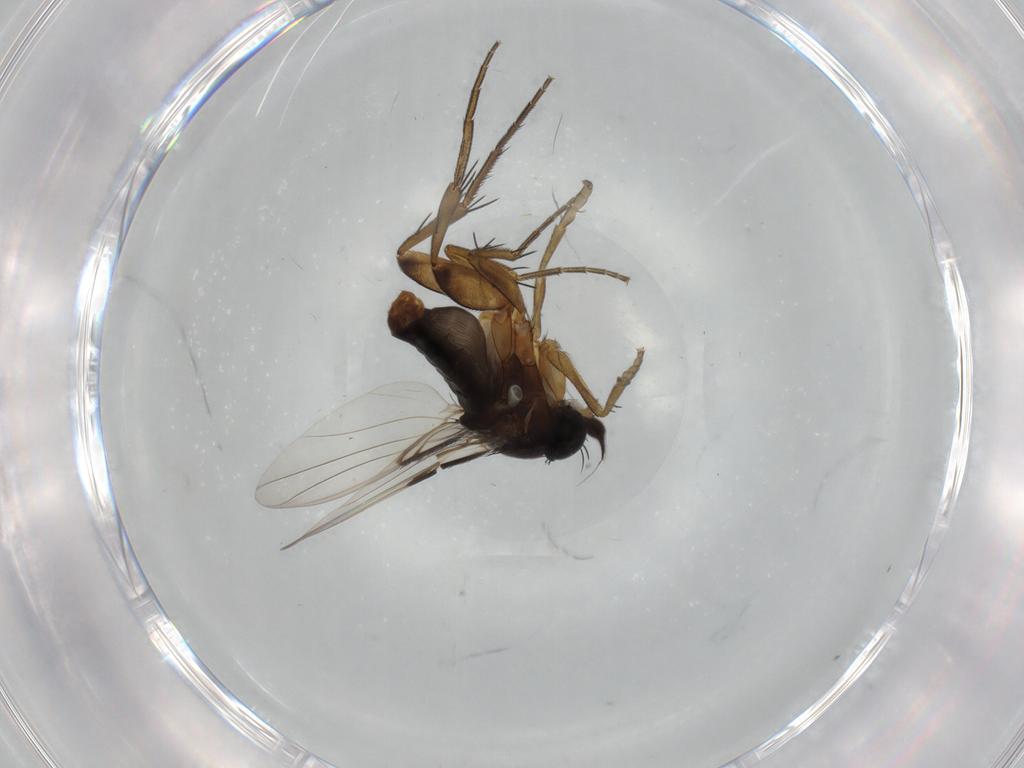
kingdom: Animalia
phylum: Arthropoda
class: Insecta
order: Diptera
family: Phoridae
